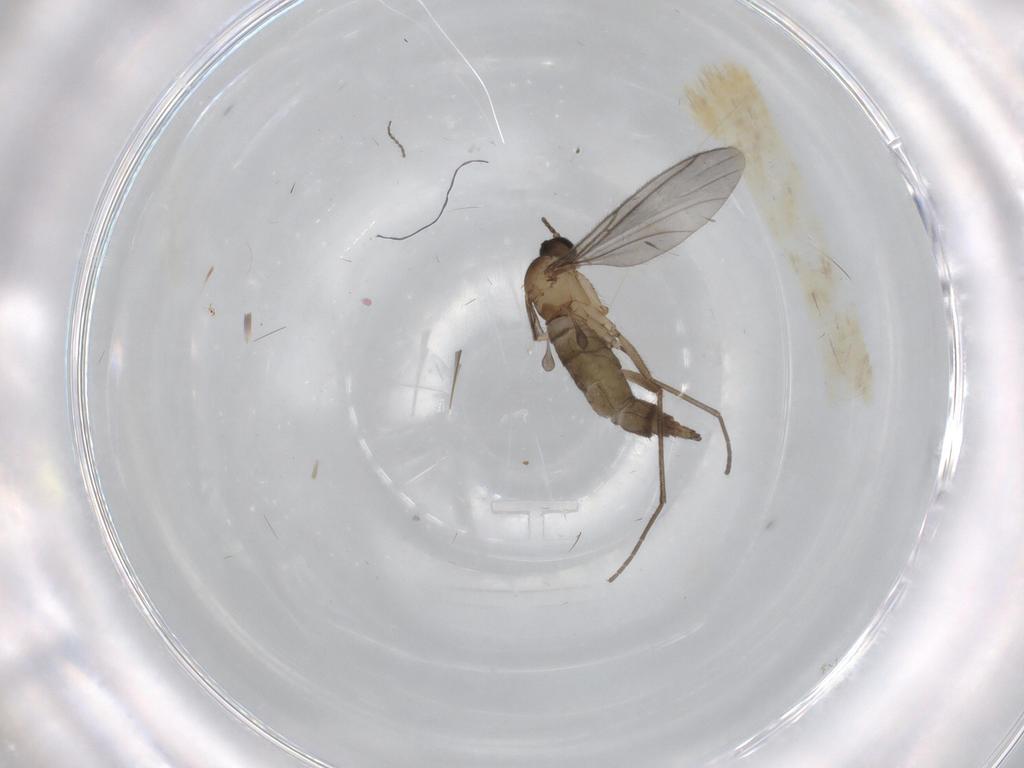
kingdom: Animalia
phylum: Arthropoda
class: Insecta
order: Diptera
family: Sciaridae
